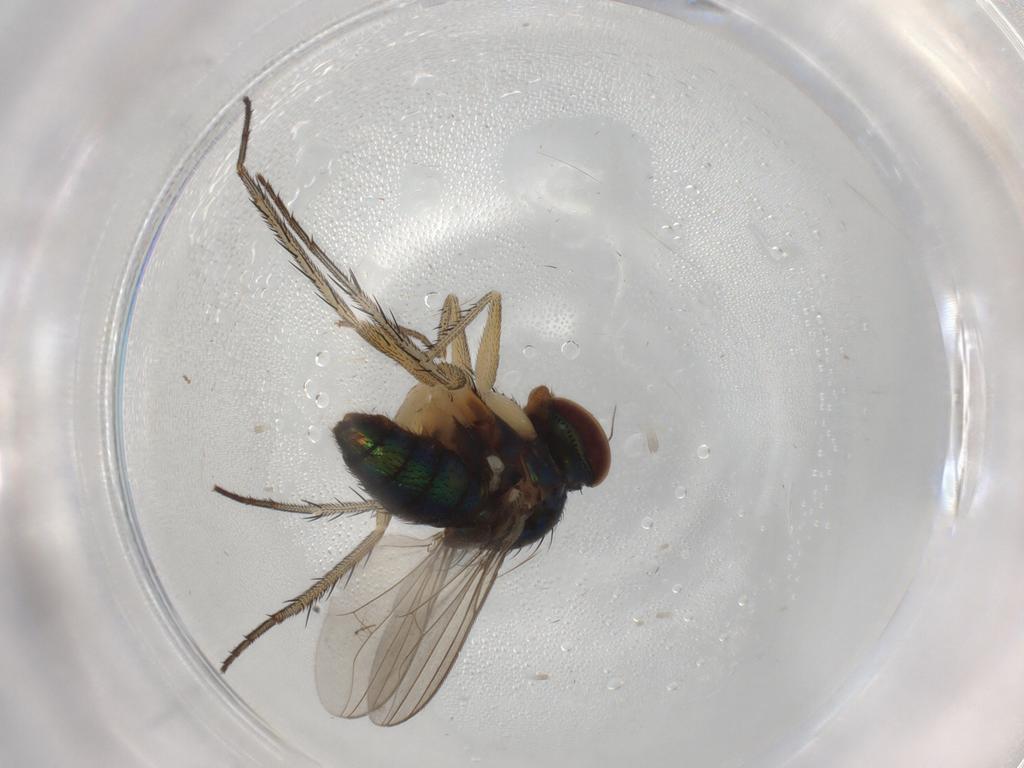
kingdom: Animalia
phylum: Arthropoda
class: Insecta
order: Diptera
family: Dolichopodidae
